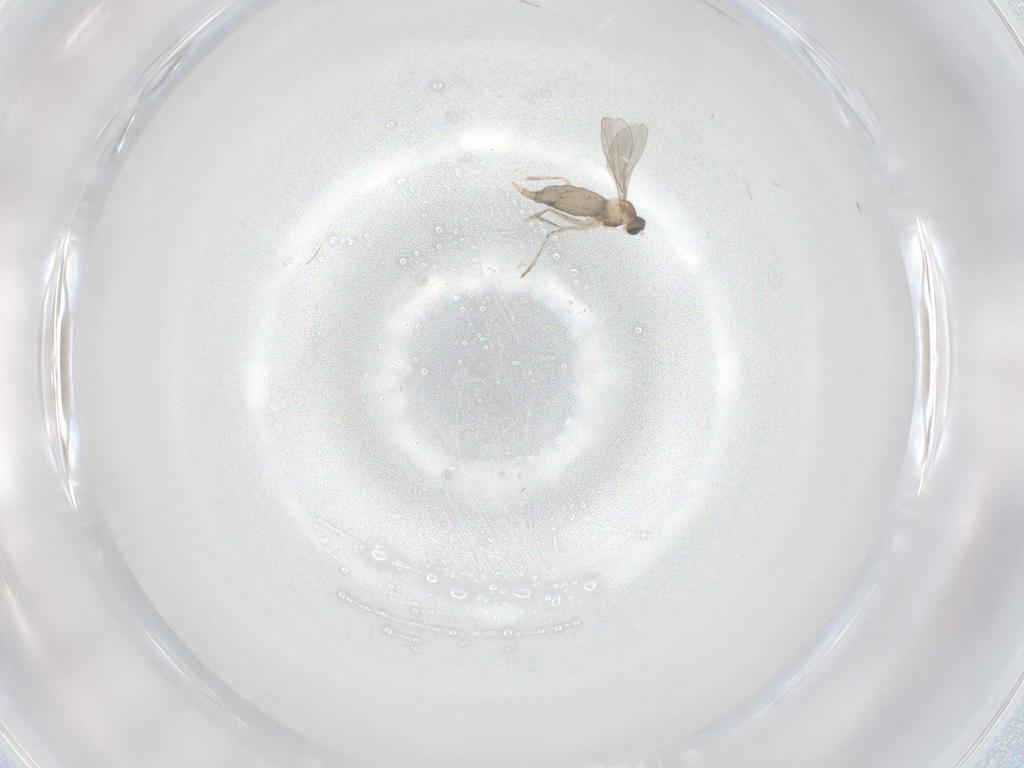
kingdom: Animalia
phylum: Arthropoda
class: Insecta
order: Diptera
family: Cecidomyiidae
